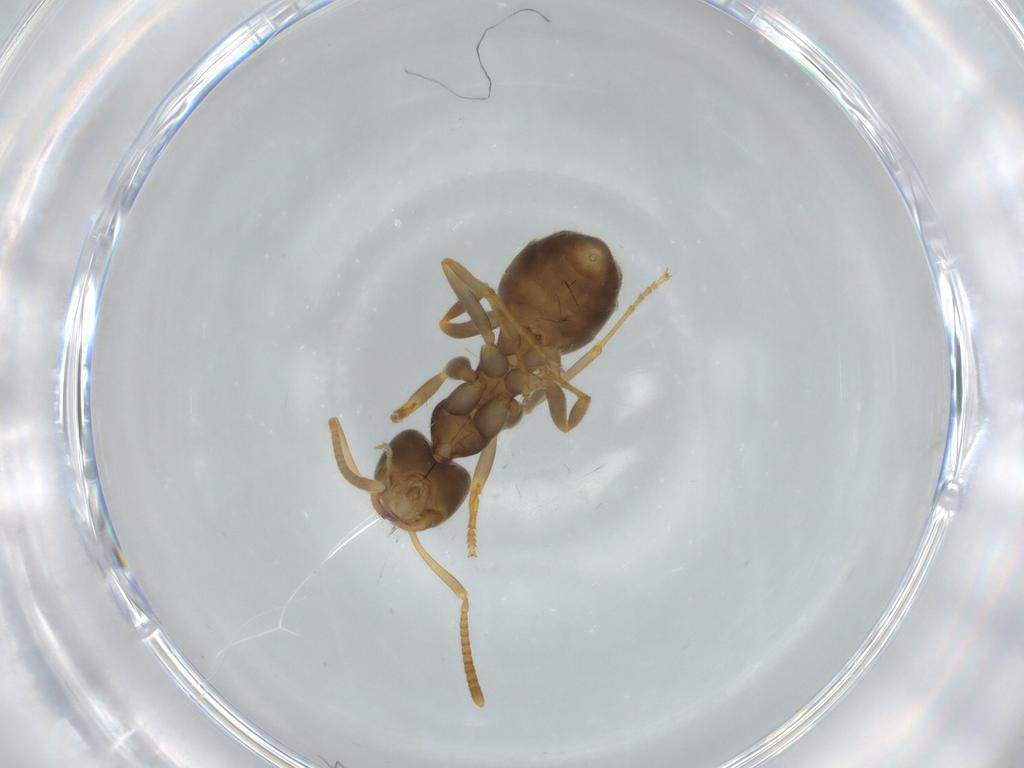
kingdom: Animalia
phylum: Arthropoda
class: Insecta
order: Hymenoptera
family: Formicidae
